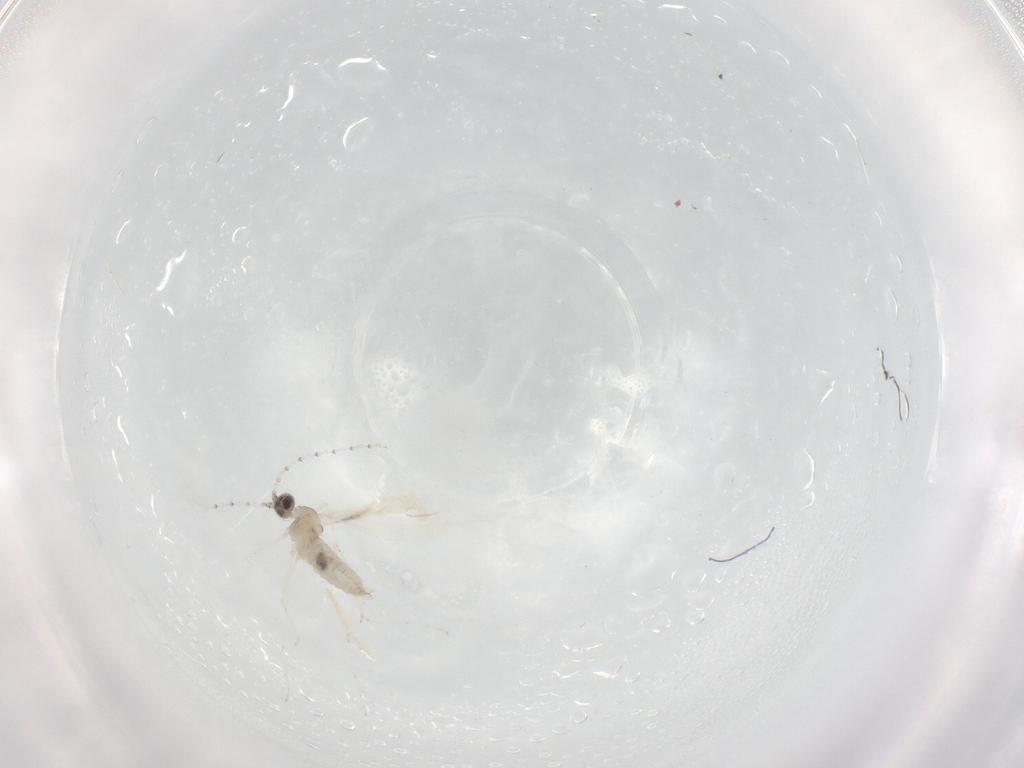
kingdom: Animalia
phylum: Arthropoda
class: Insecta
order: Diptera
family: Cecidomyiidae
